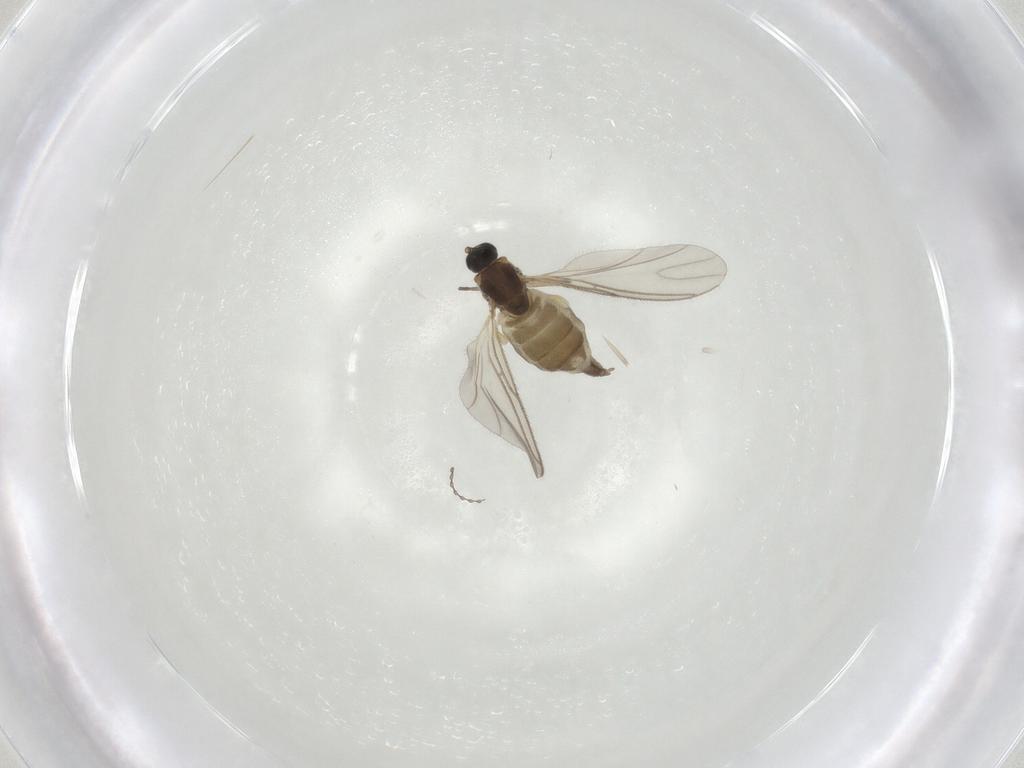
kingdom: Animalia
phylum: Arthropoda
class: Insecta
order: Diptera
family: Cecidomyiidae
